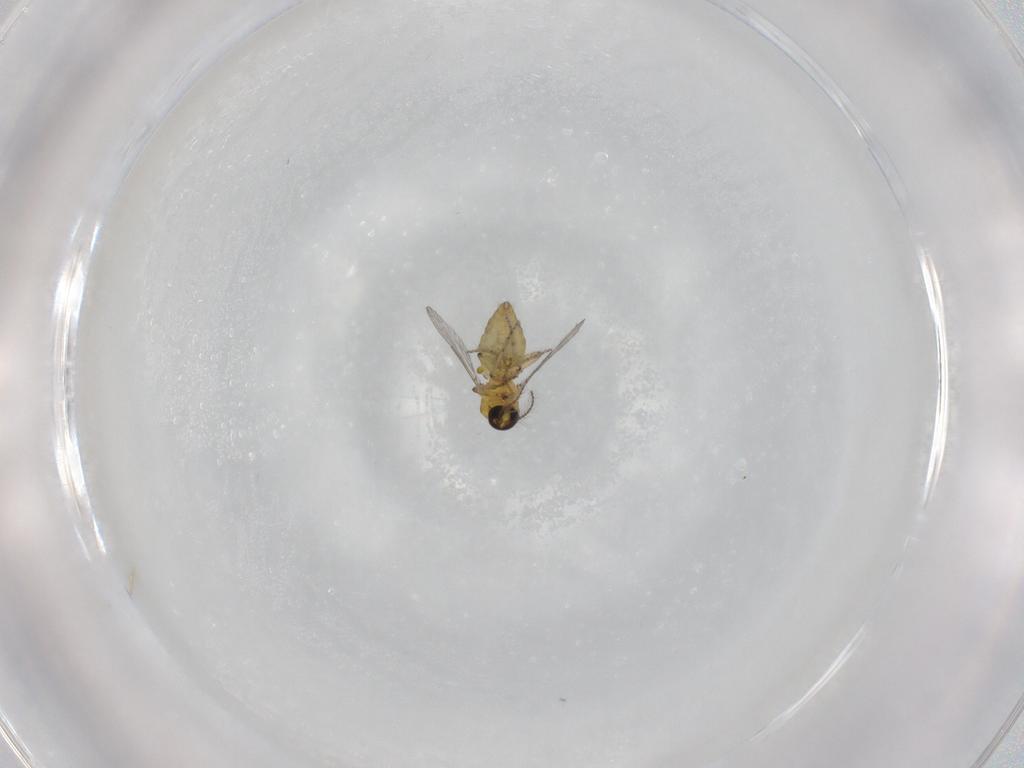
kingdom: Animalia
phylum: Arthropoda
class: Insecta
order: Diptera
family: Ceratopogonidae
